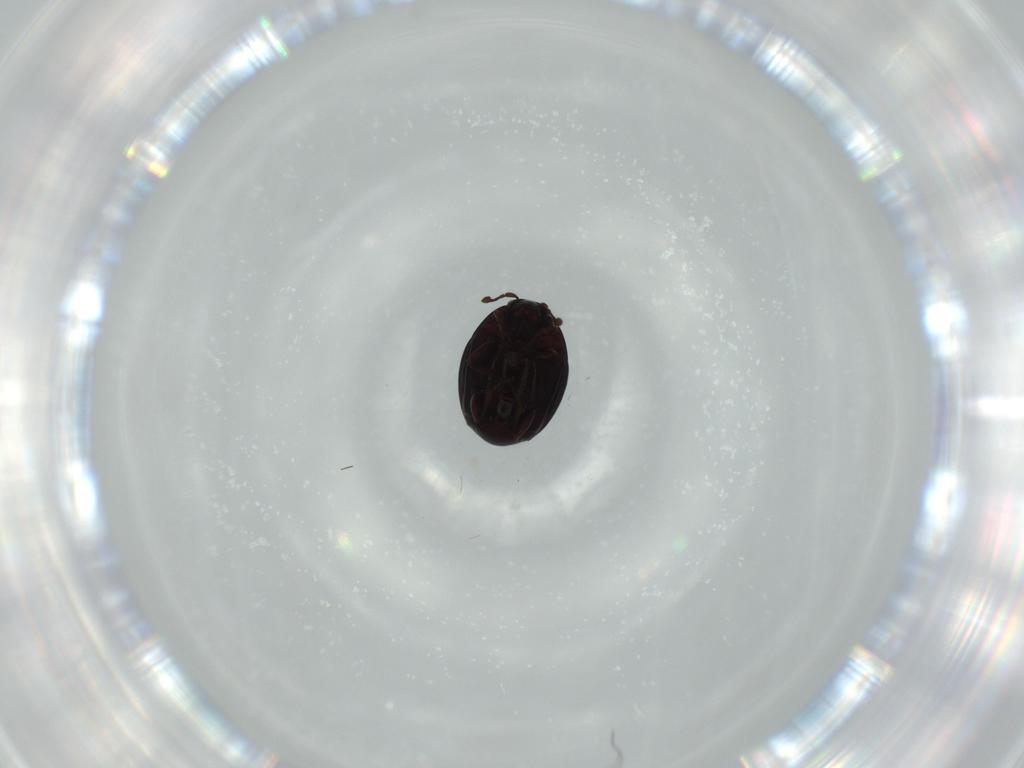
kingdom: Animalia
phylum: Arthropoda
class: Insecta
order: Coleoptera
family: Histeridae
